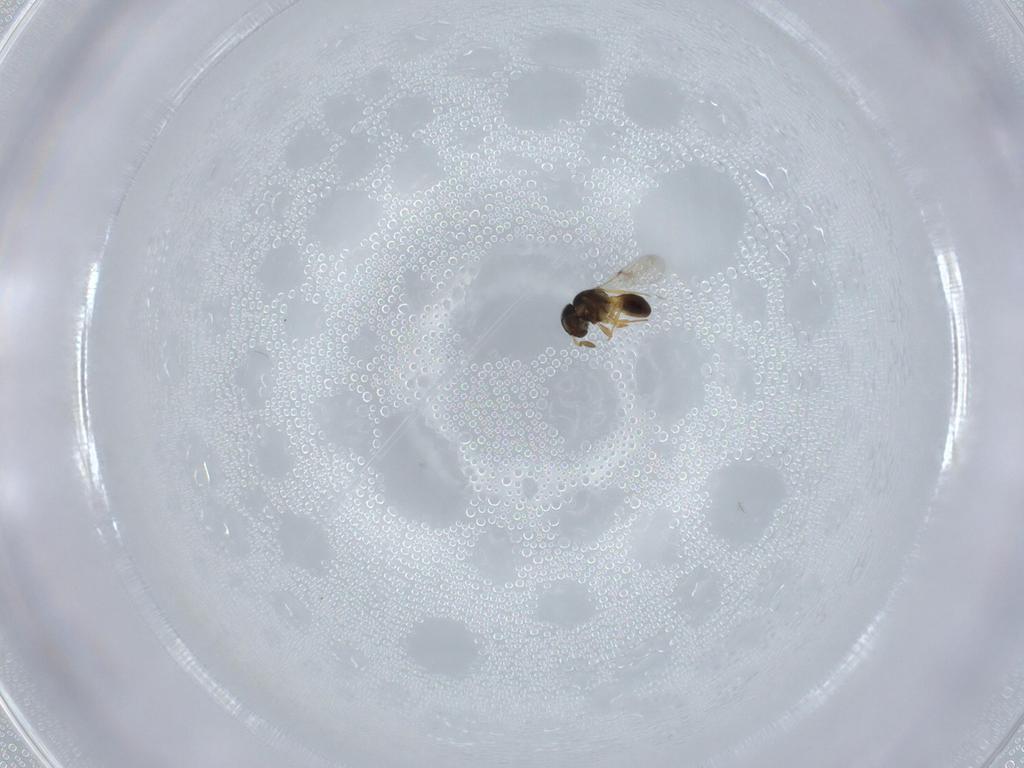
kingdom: Animalia
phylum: Arthropoda
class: Insecta
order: Hymenoptera
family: Scelionidae
